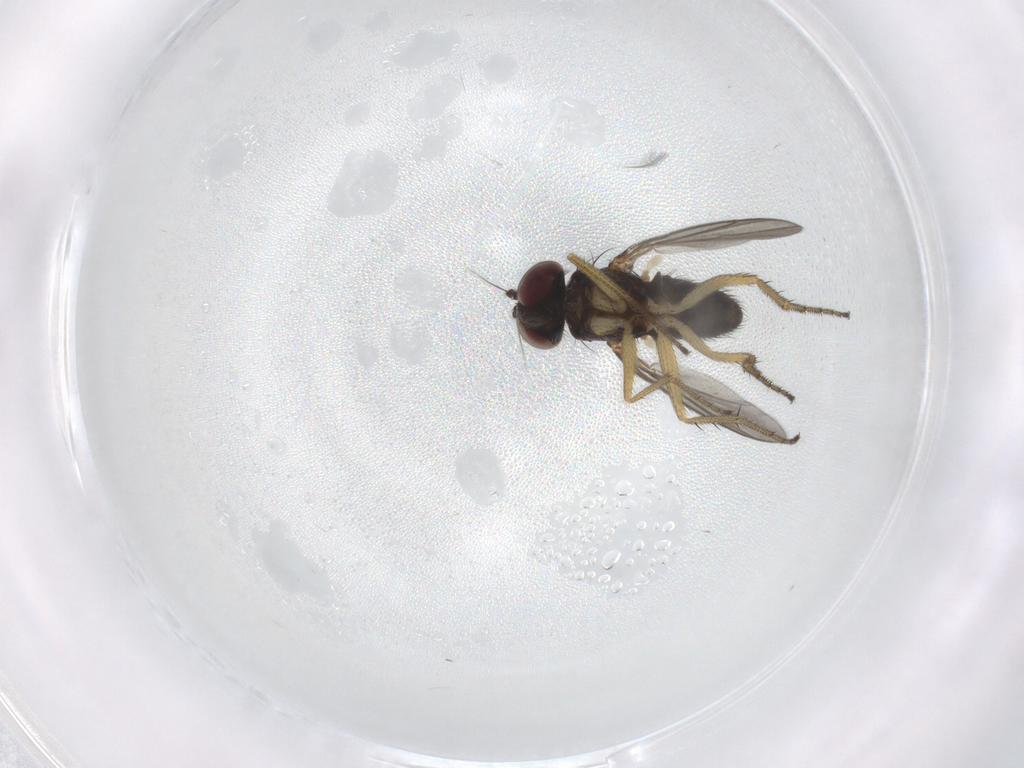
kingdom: Animalia
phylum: Arthropoda
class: Insecta
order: Diptera
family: Dolichopodidae
